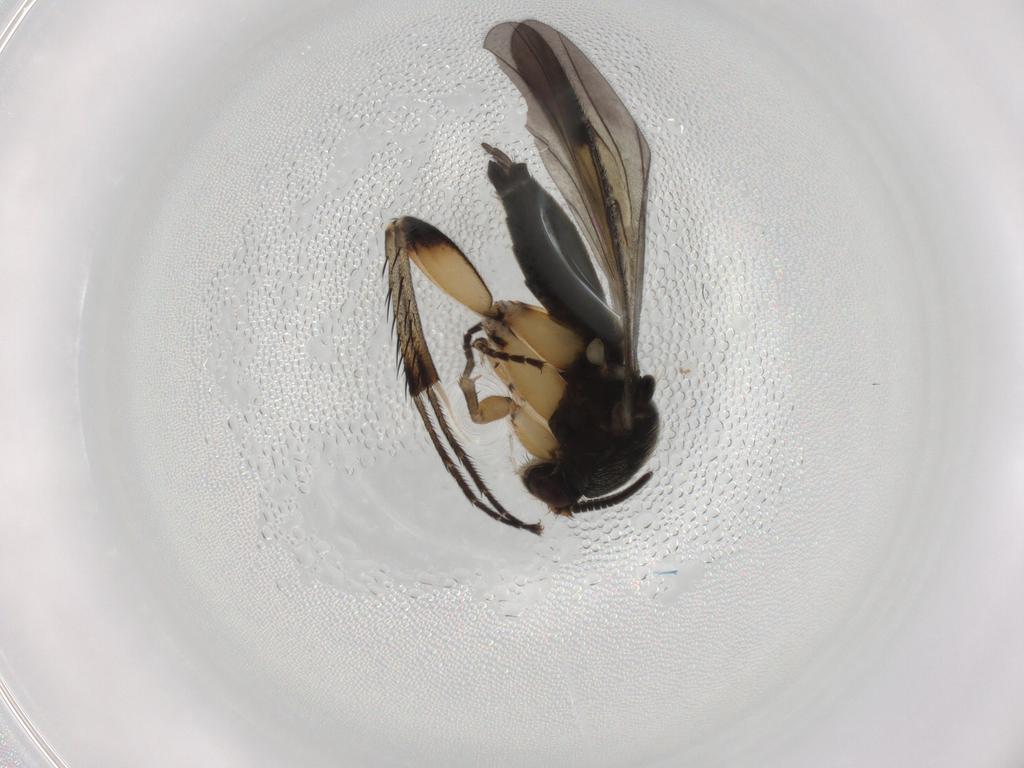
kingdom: Animalia
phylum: Arthropoda
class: Insecta
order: Diptera
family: Mycetophilidae
